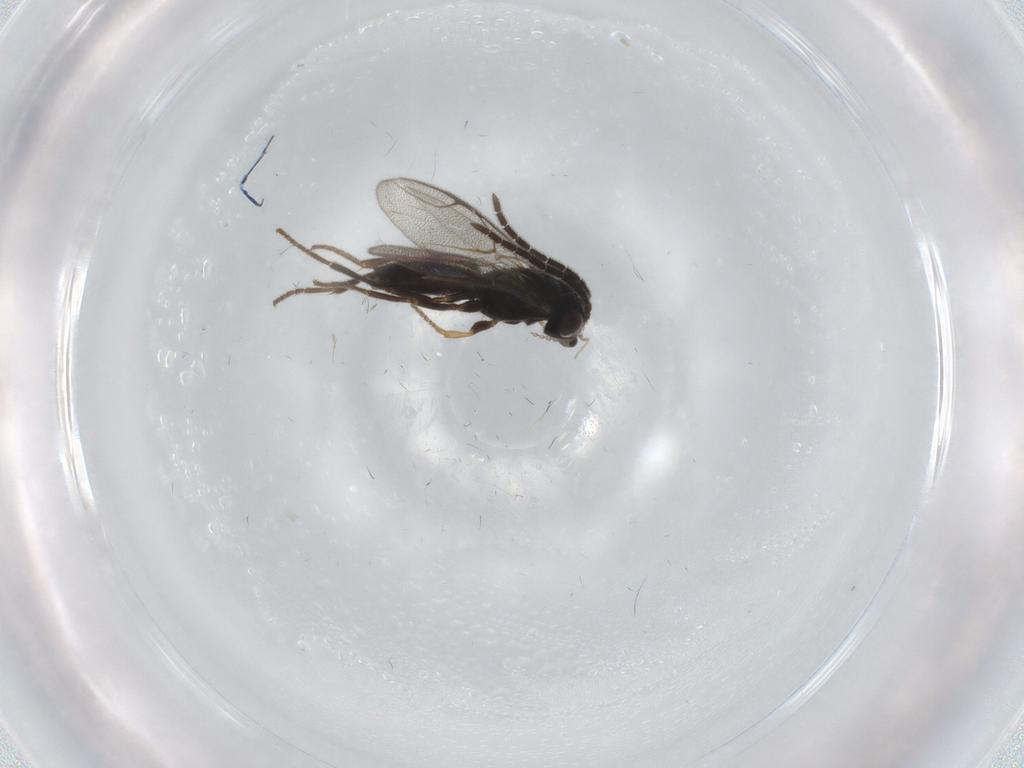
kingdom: Animalia
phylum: Arthropoda
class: Insecta
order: Hymenoptera
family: Dryinidae
